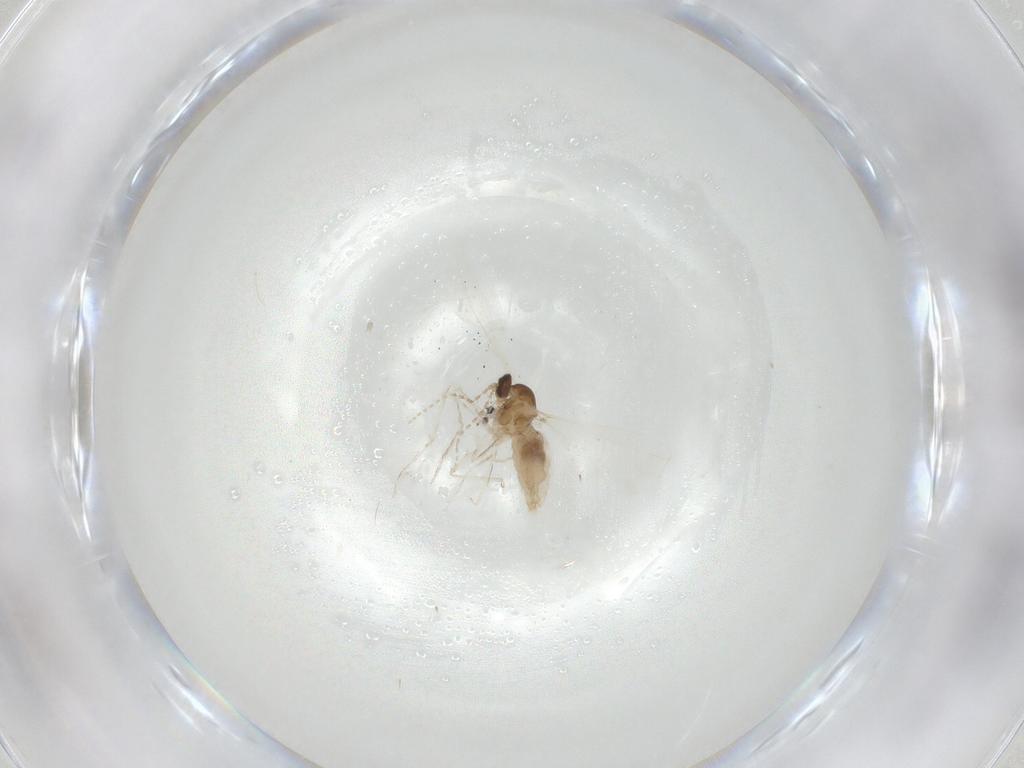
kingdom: Animalia
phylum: Arthropoda
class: Insecta
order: Diptera
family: Cecidomyiidae
